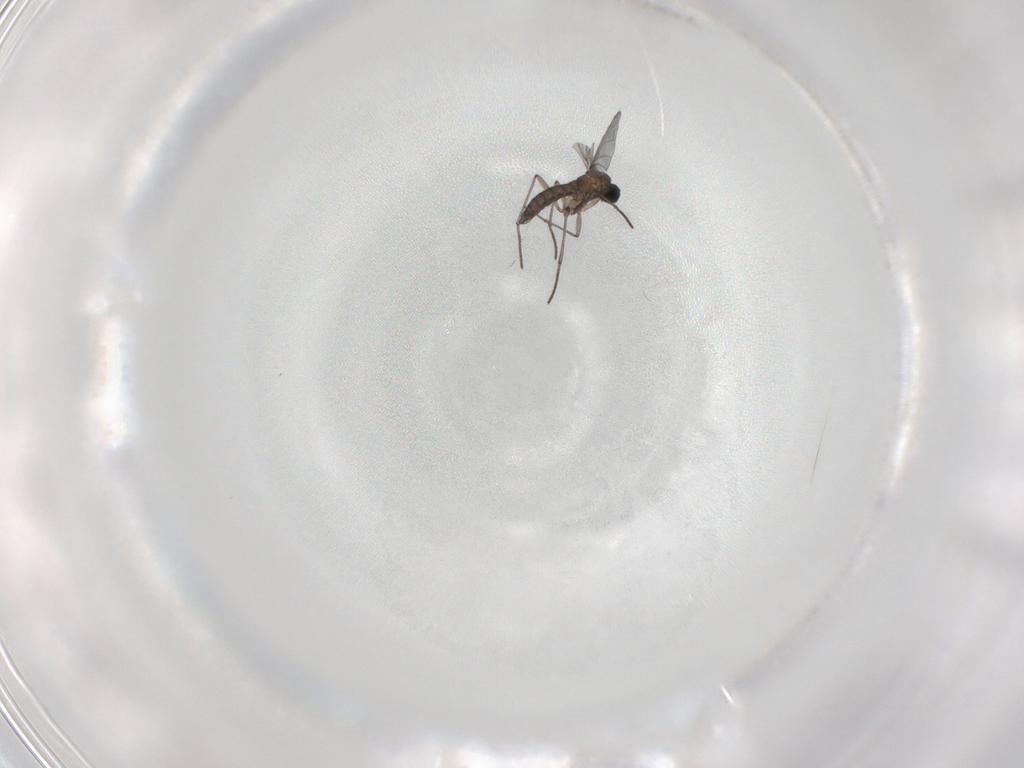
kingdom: Animalia
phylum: Arthropoda
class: Insecta
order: Diptera
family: Phoridae
